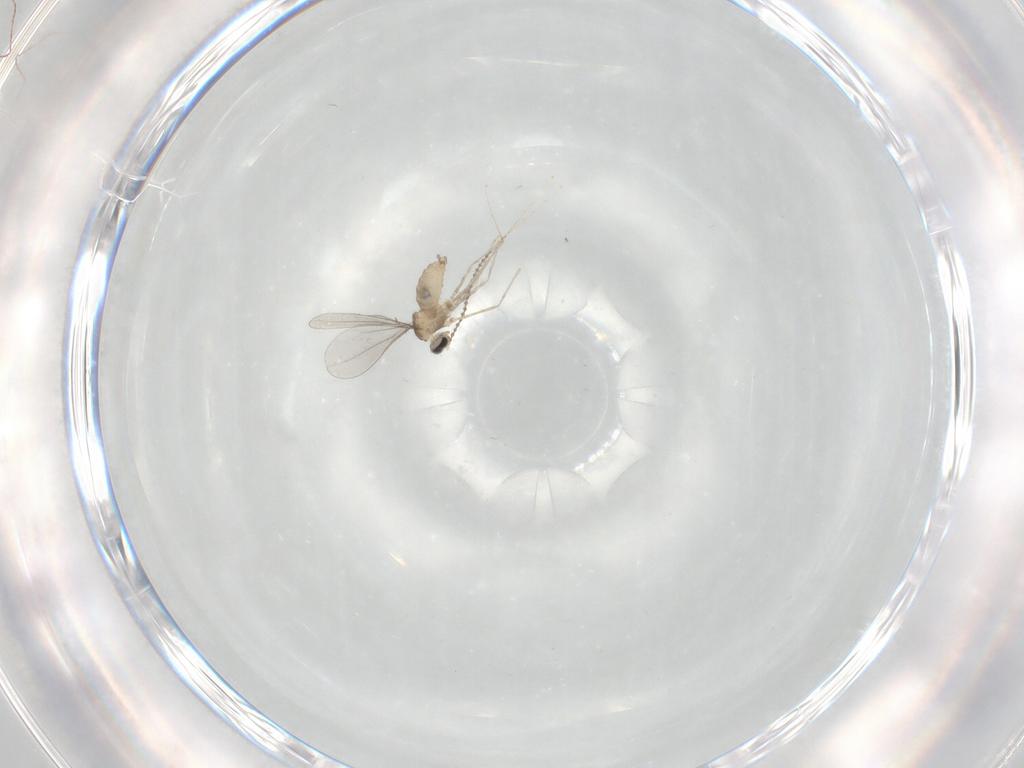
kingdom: Animalia
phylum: Arthropoda
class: Insecta
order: Diptera
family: Cecidomyiidae
